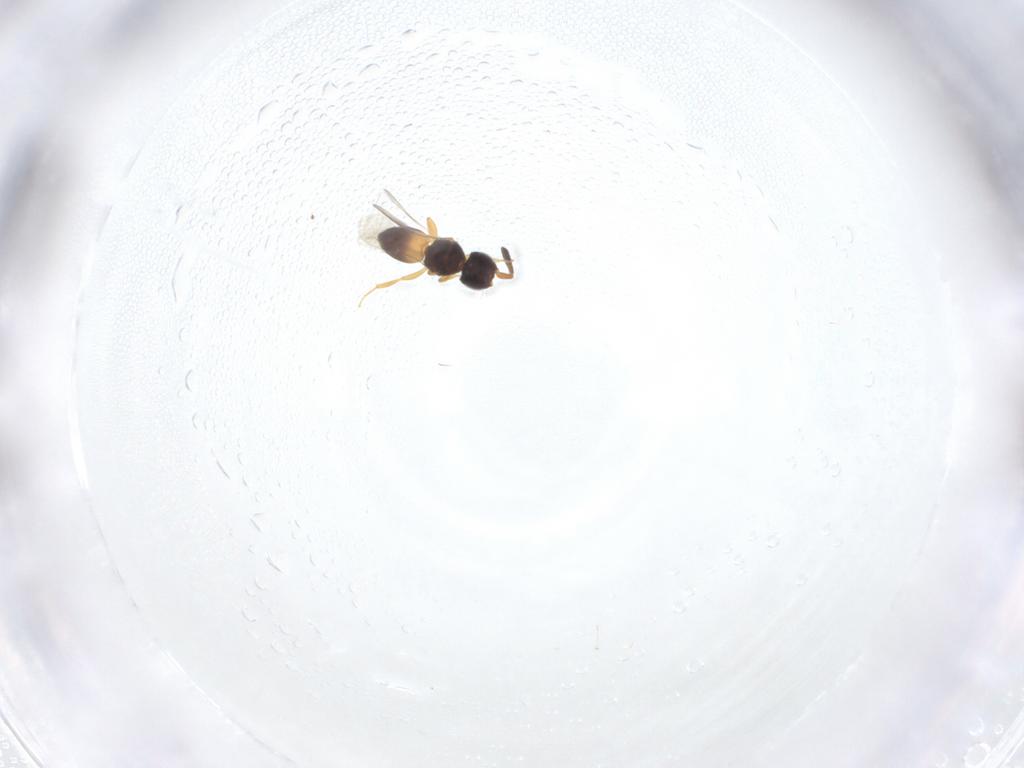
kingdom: Animalia
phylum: Arthropoda
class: Insecta
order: Hymenoptera
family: Ceraphronidae
